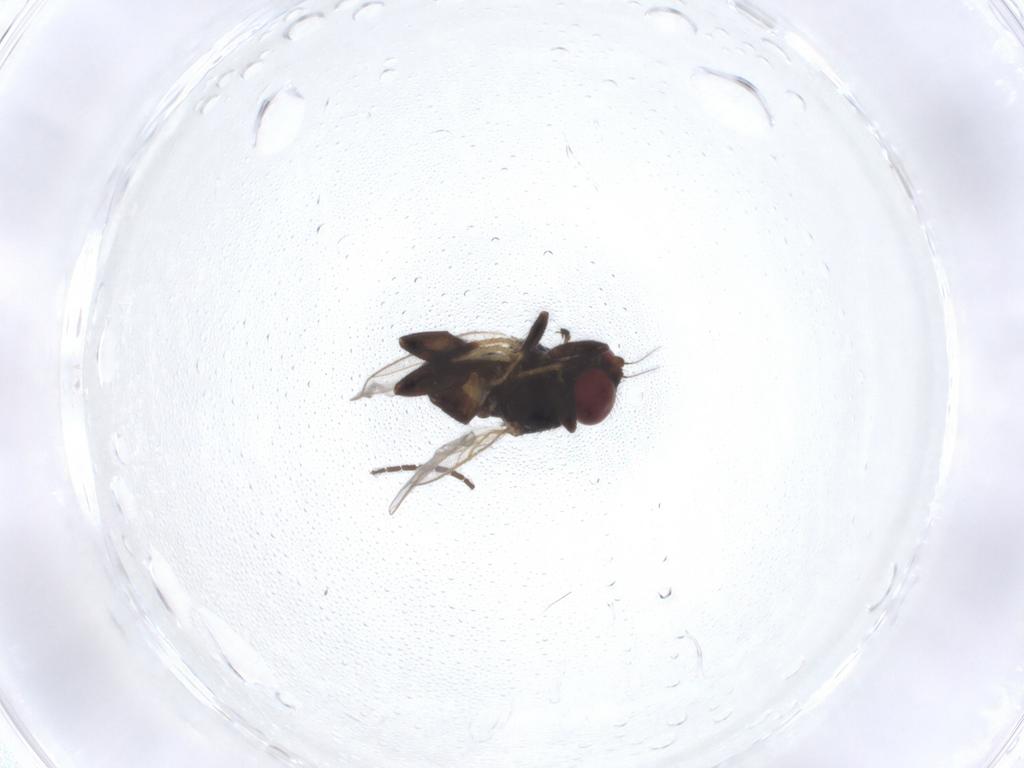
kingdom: Animalia
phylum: Arthropoda
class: Insecta
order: Diptera
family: Chloropidae
